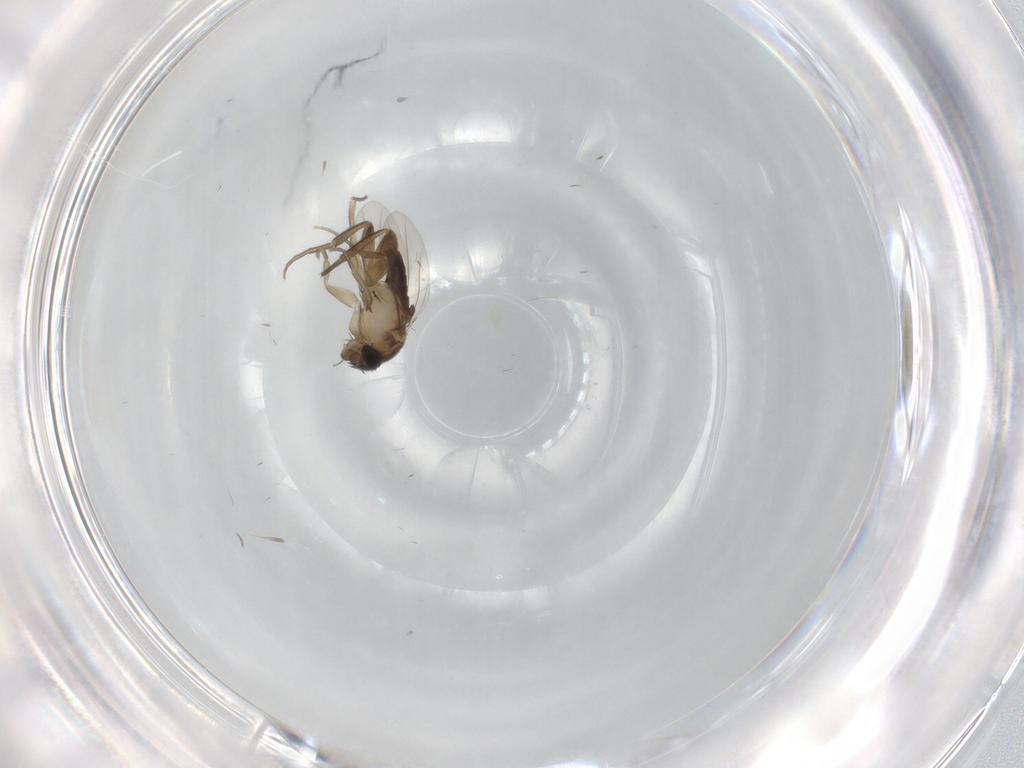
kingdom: Animalia
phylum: Arthropoda
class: Insecta
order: Diptera
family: Phoridae
